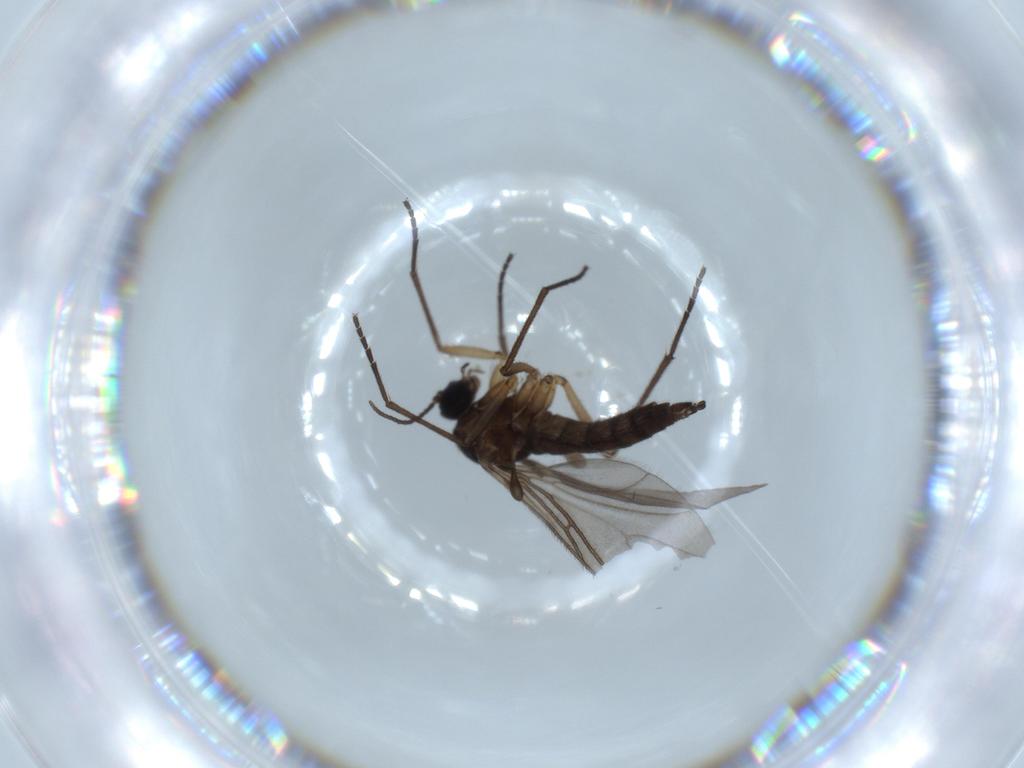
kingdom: Animalia
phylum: Arthropoda
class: Insecta
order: Diptera
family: Sciaridae
